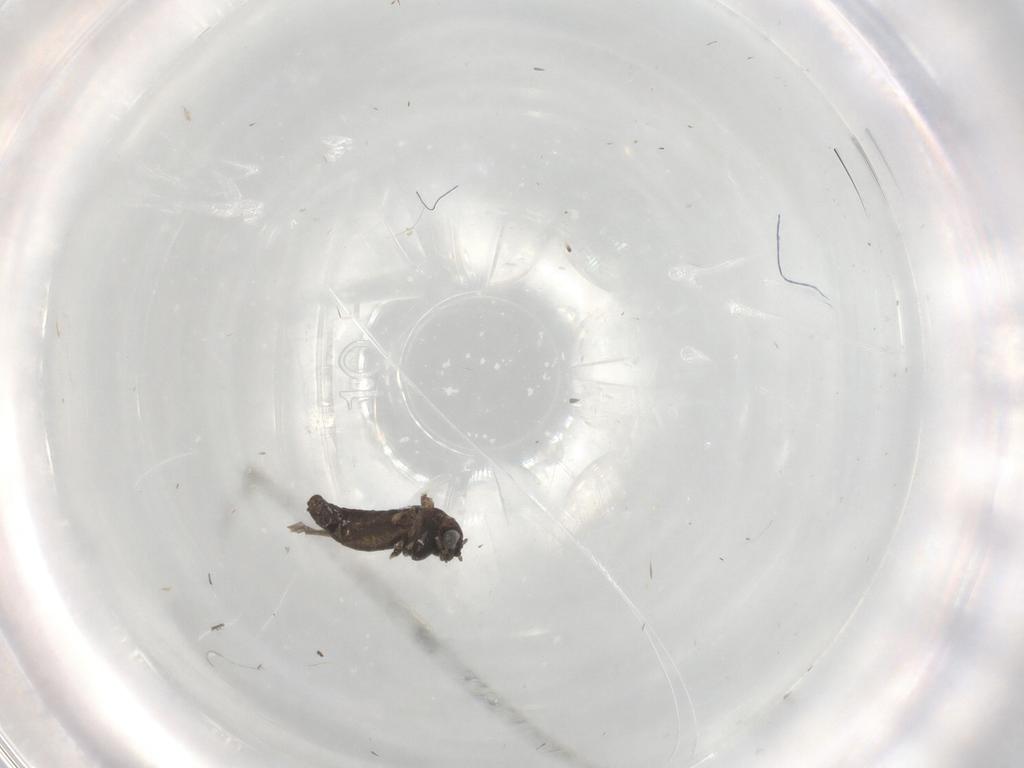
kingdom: Animalia
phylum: Arthropoda
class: Insecta
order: Diptera
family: Chironomidae
